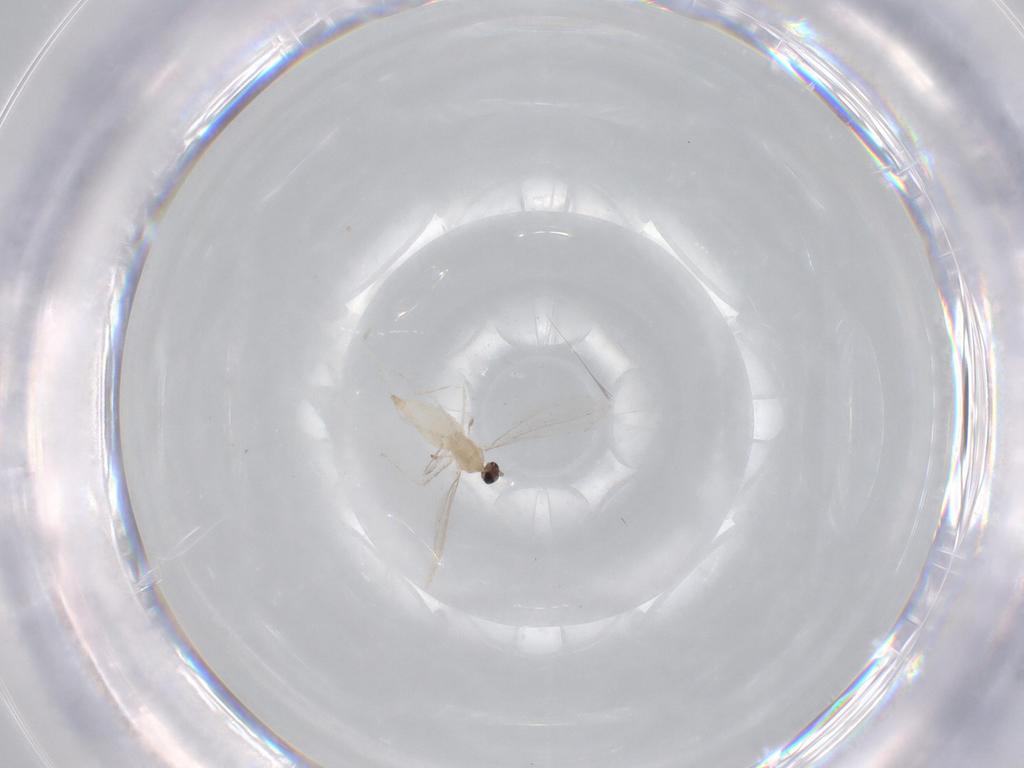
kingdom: Animalia
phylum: Arthropoda
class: Insecta
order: Diptera
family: Cecidomyiidae
